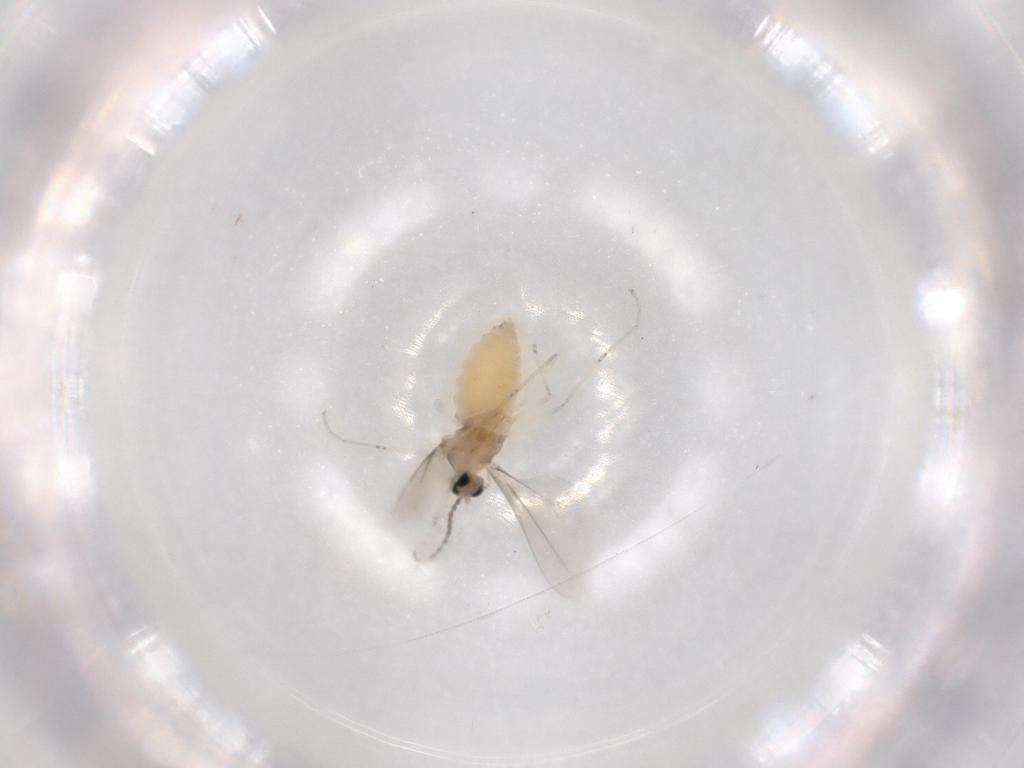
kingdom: Animalia
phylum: Arthropoda
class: Insecta
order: Diptera
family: Cecidomyiidae
